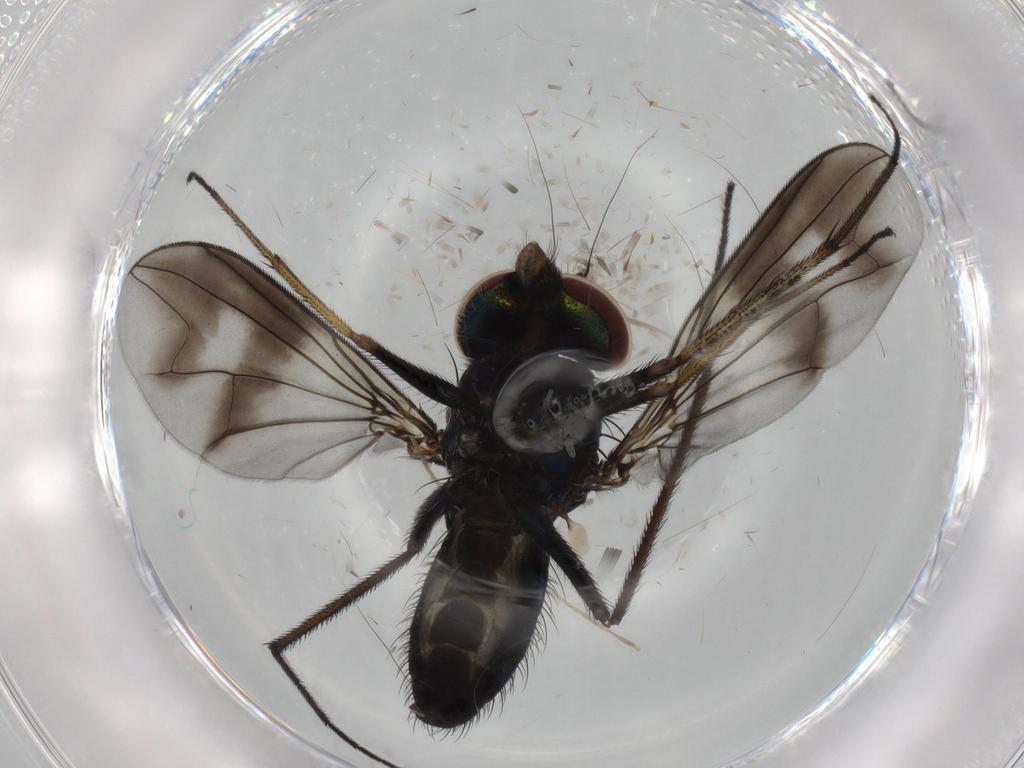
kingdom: Animalia
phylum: Arthropoda
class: Insecta
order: Diptera
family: Dolichopodidae
